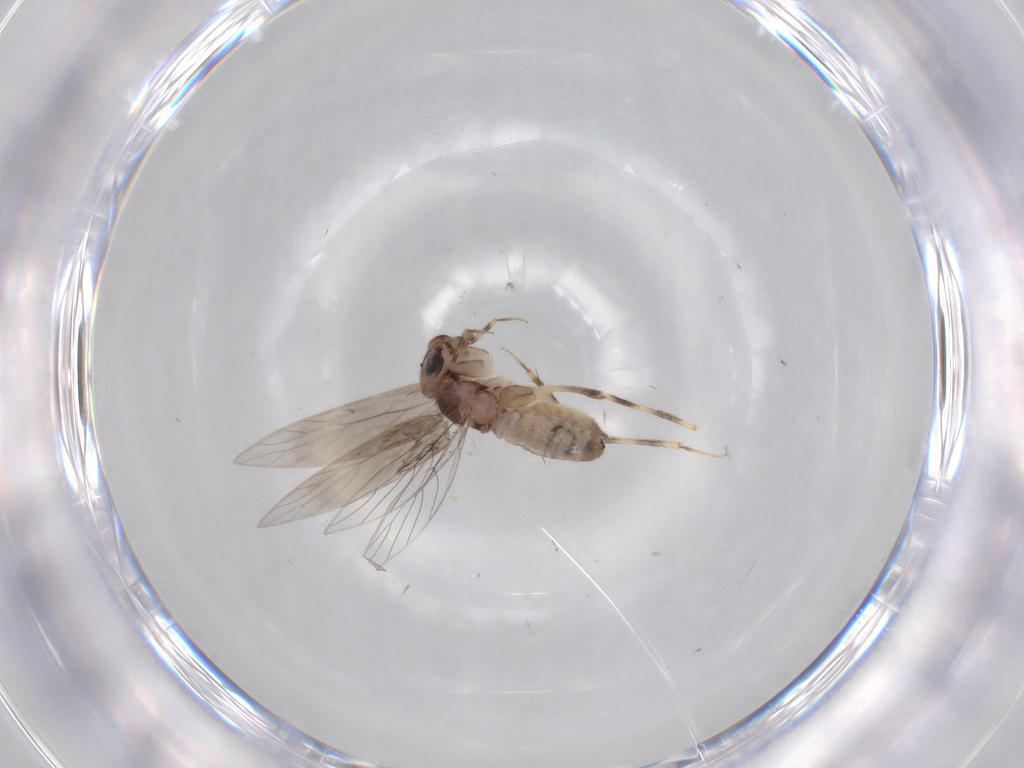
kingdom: Animalia
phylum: Arthropoda
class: Insecta
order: Psocodea
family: Lepidopsocidae
